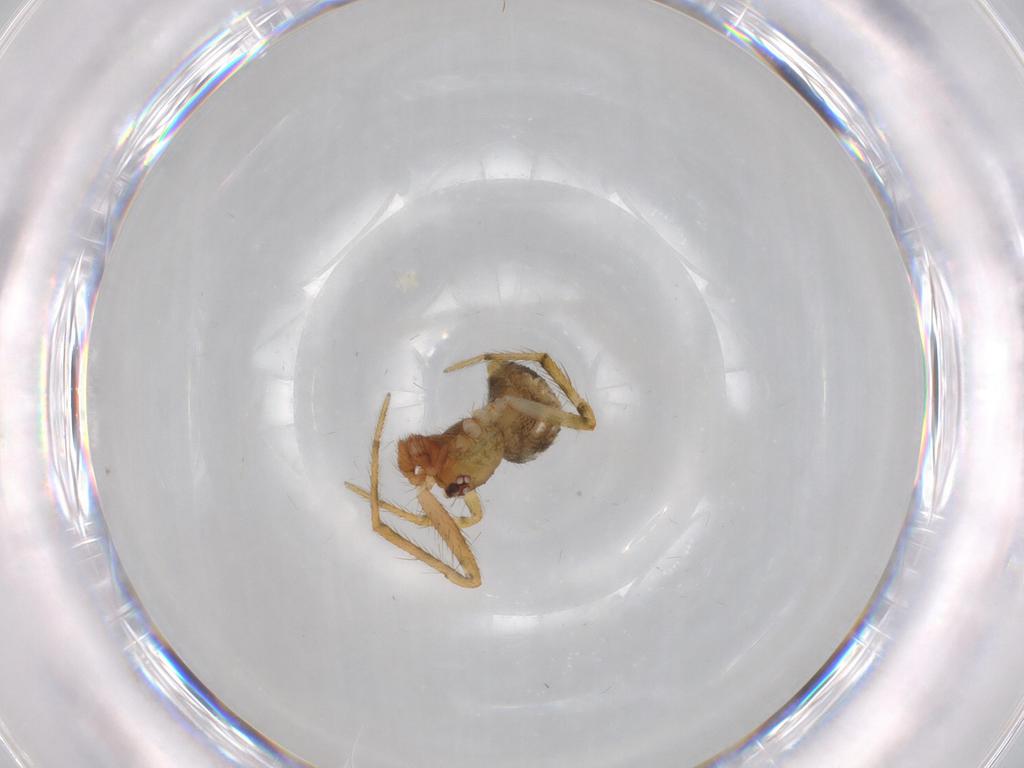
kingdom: Animalia
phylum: Arthropoda
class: Arachnida
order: Araneae
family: Theridiidae
